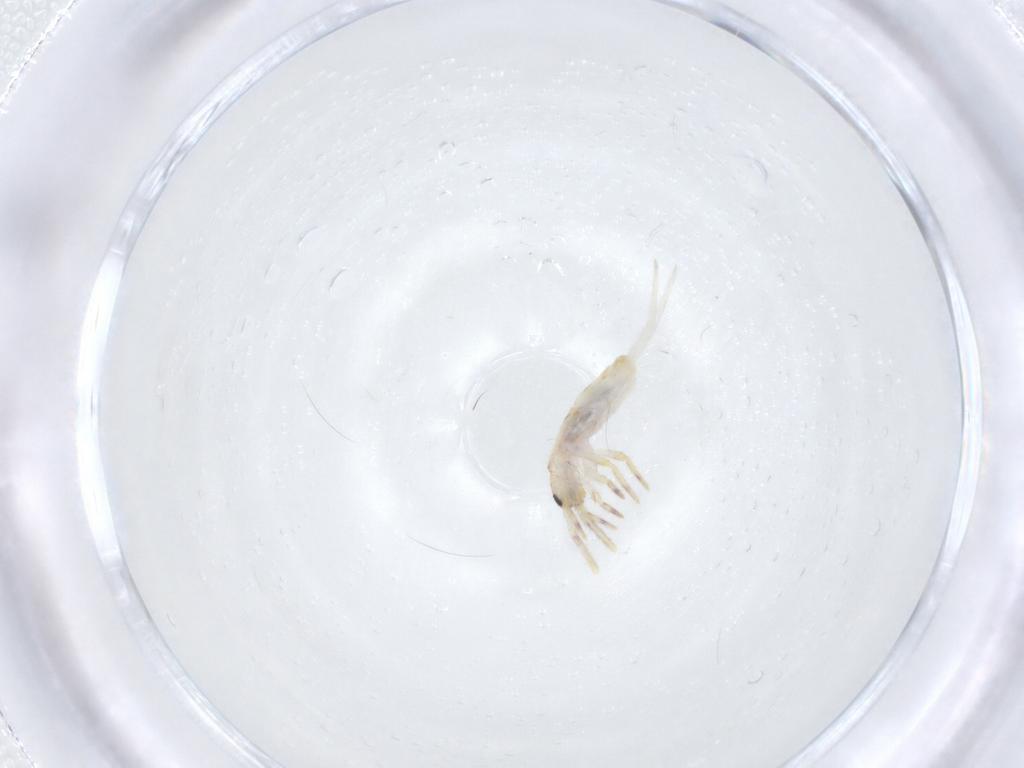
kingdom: Animalia
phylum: Arthropoda
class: Collembola
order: Entomobryomorpha
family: Entomobryidae
